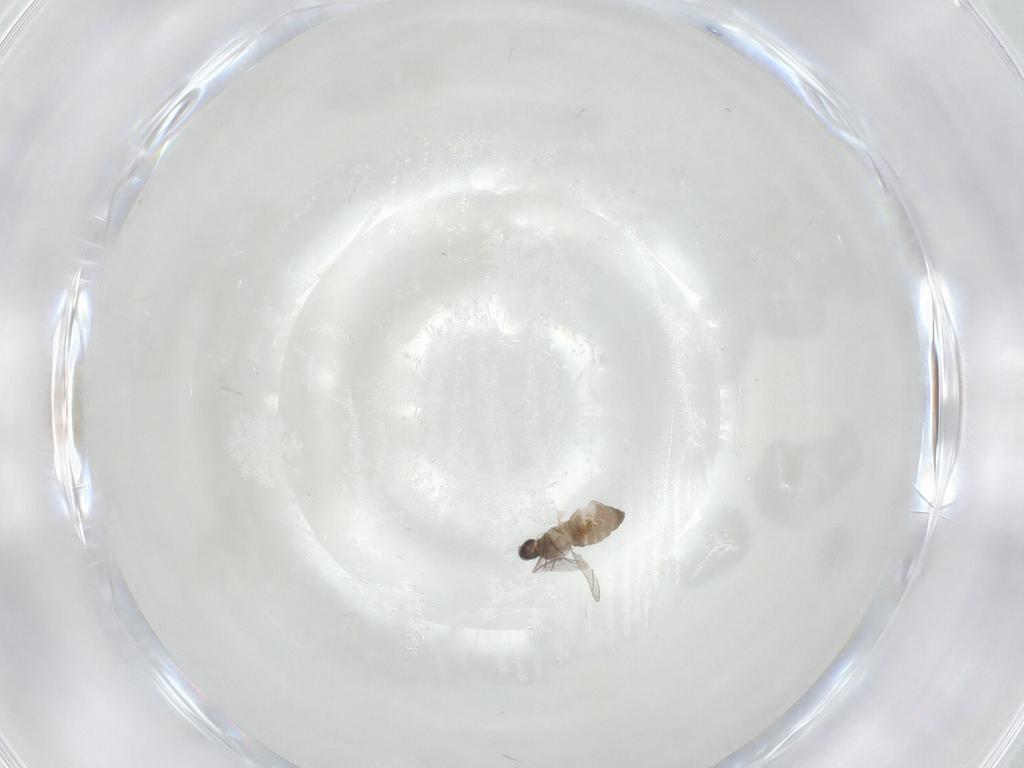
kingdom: Animalia
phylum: Arthropoda
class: Insecta
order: Diptera
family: Cecidomyiidae
